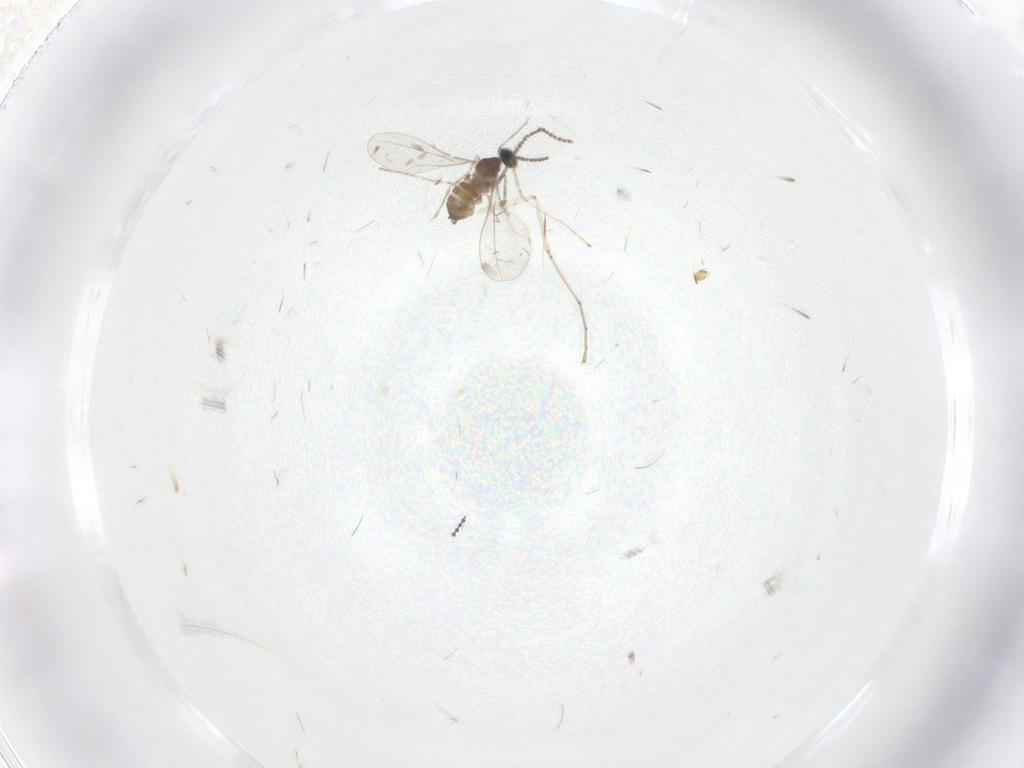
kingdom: Animalia
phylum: Arthropoda
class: Insecta
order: Diptera
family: Cecidomyiidae
